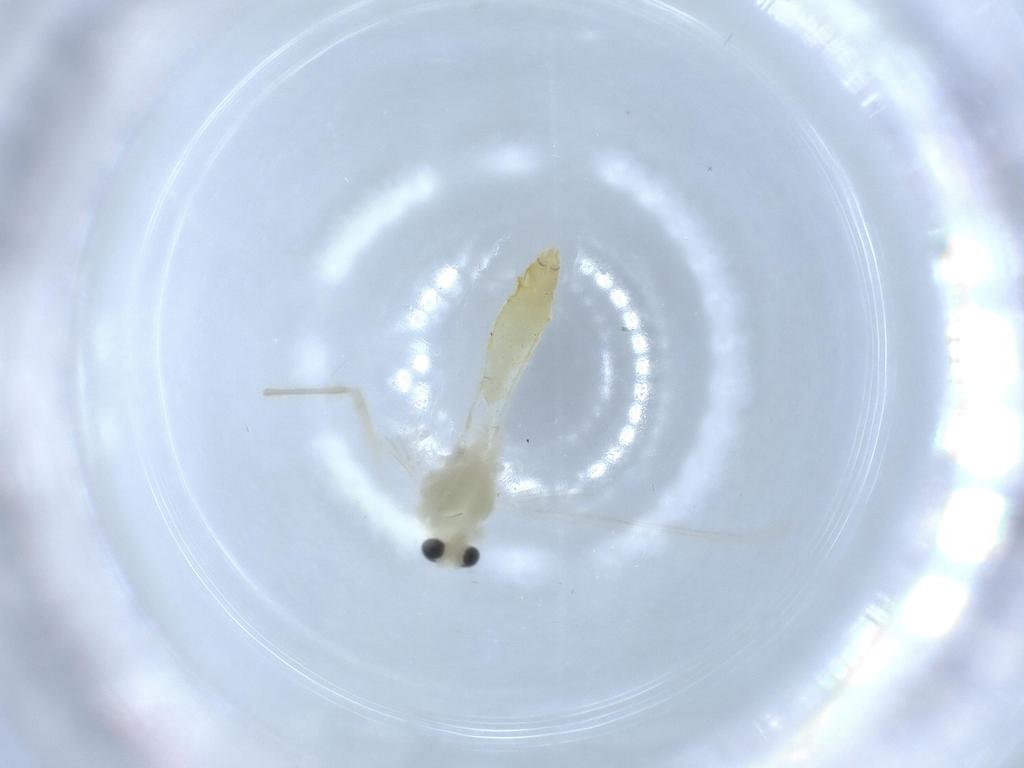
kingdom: Animalia
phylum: Arthropoda
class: Insecta
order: Diptera
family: Chironomidae
